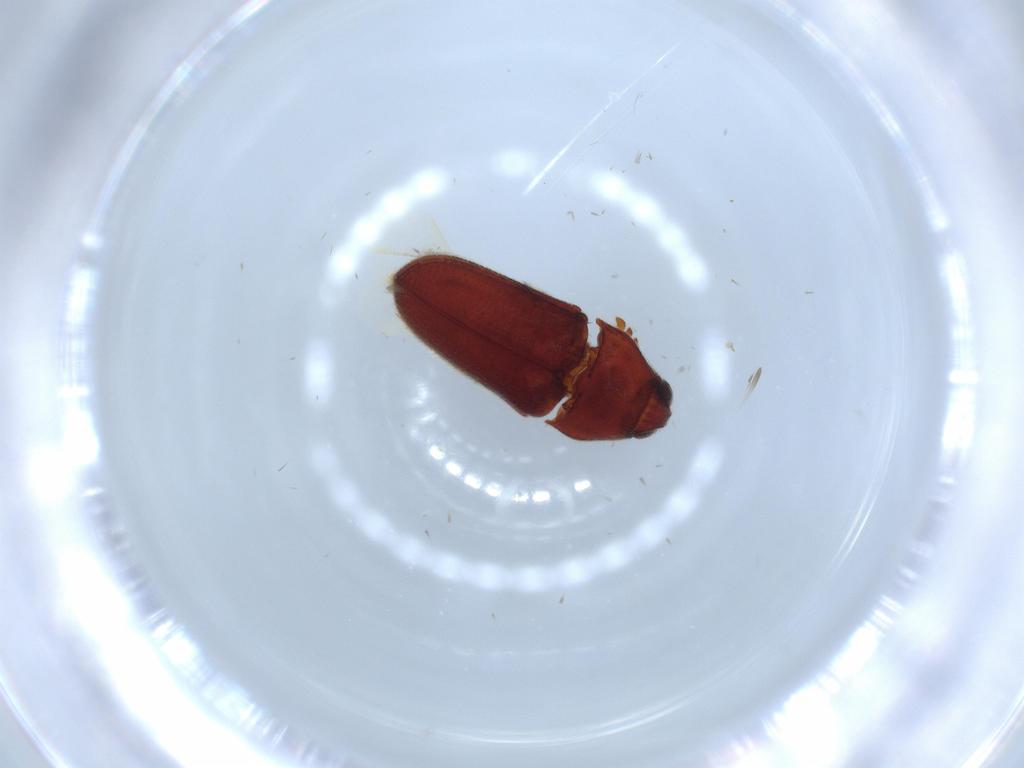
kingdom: Animalia
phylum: Arthropoda
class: Insecta
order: Coleoptera
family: Throscidae
